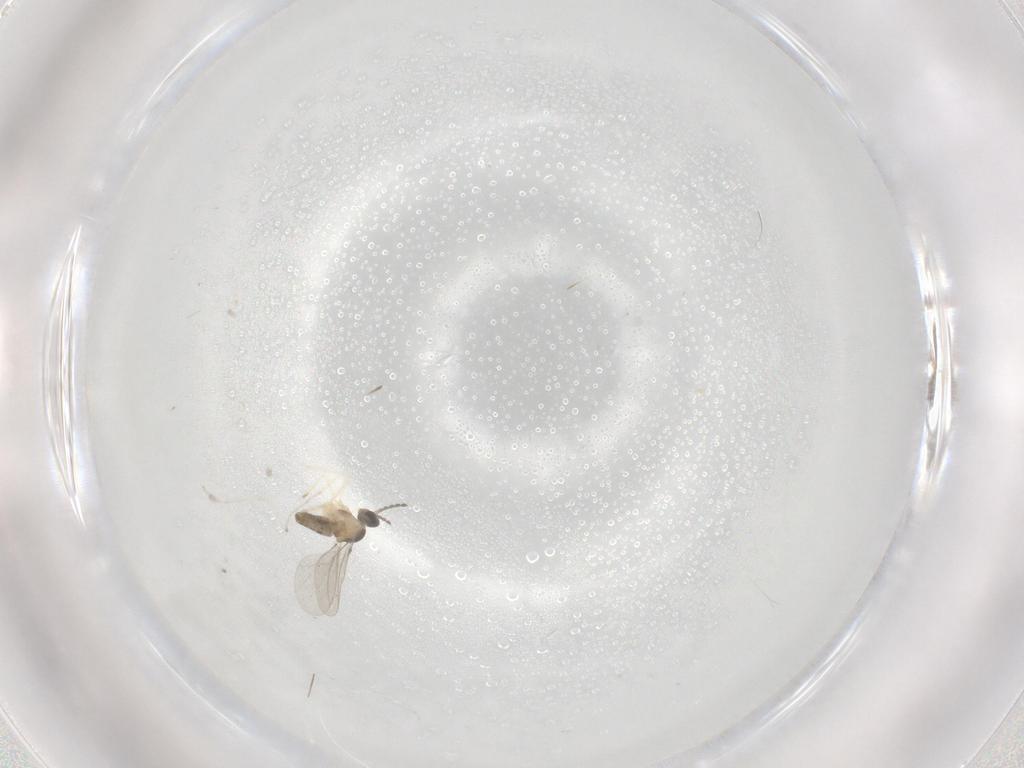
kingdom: Animalia
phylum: Arthropoda
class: Insecta
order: Diptera
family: Cecidomyiidae
